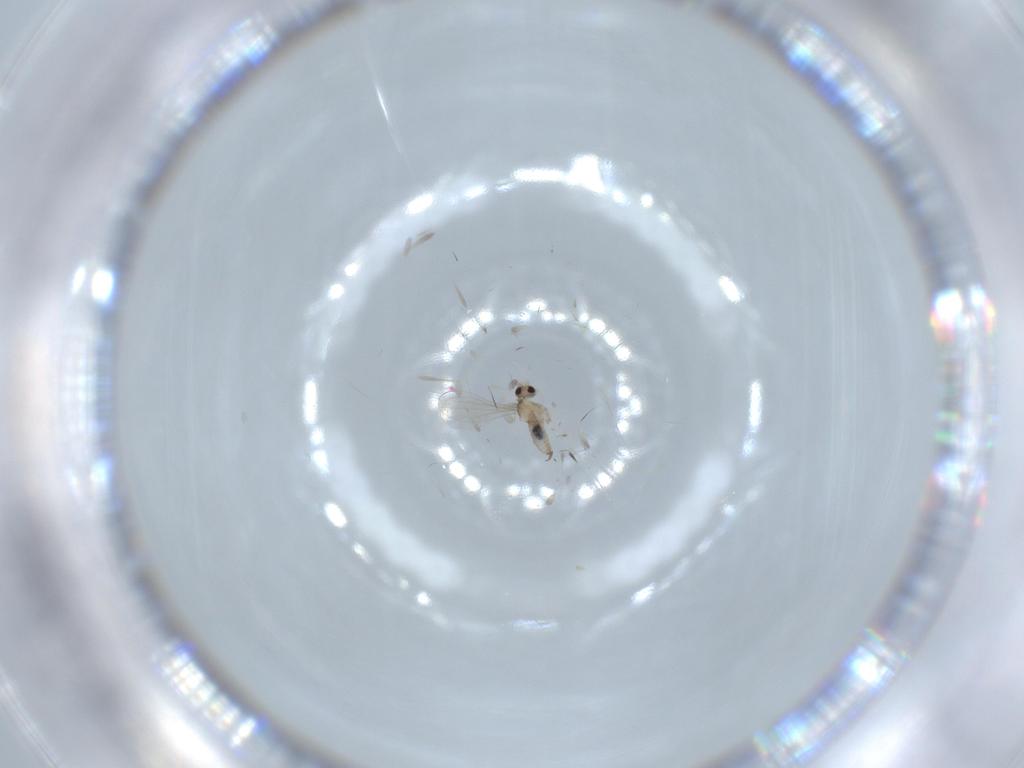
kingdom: Animalia
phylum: Arthropoda
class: Insecta
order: Diptera
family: Cecidomyiidae
